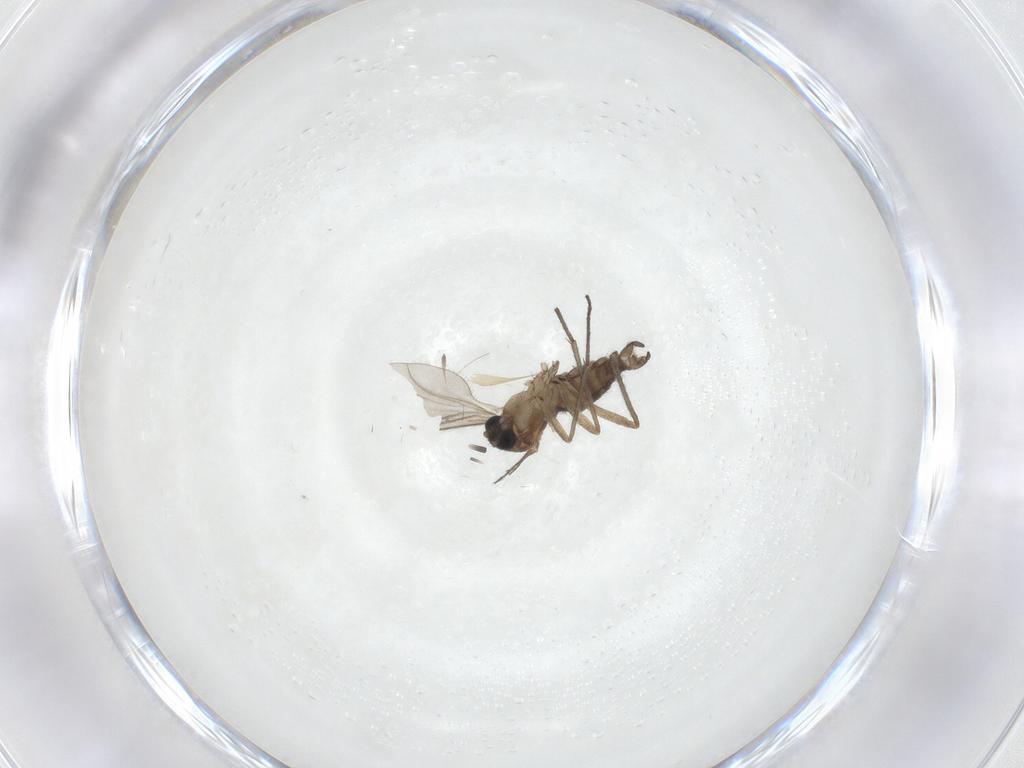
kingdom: Animalia
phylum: Arthropoda
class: Insecta
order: Diptera
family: Sciaridae
